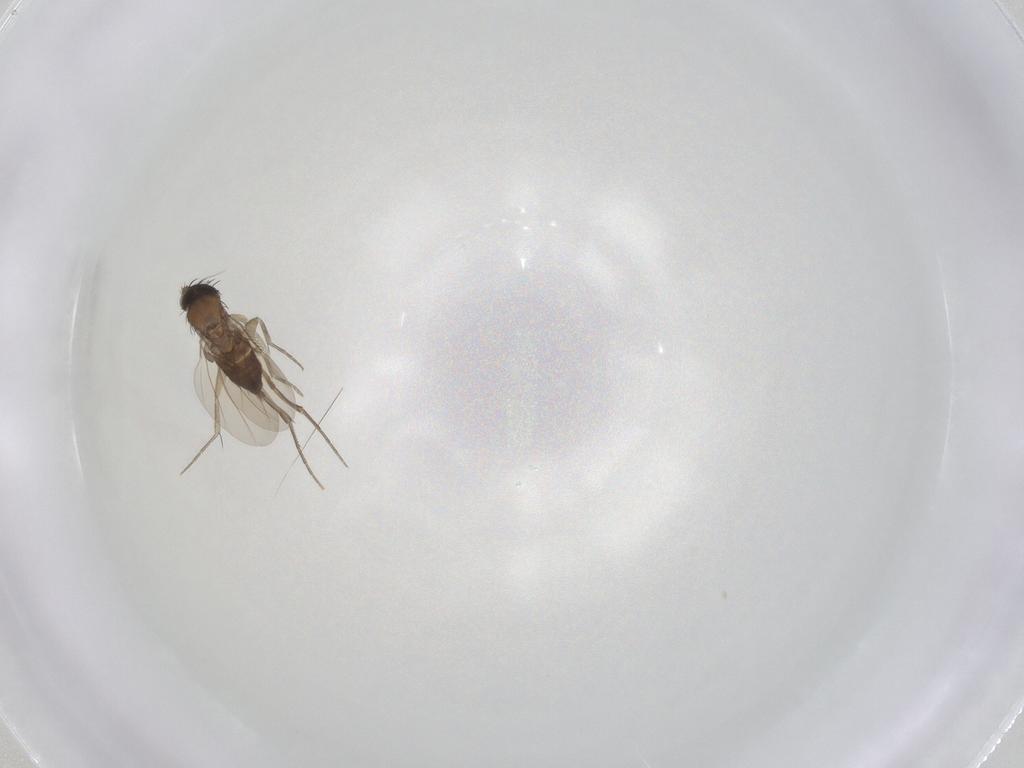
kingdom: Animalia
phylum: Arthropoda
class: Insecta
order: Diptera
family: Phoridae
